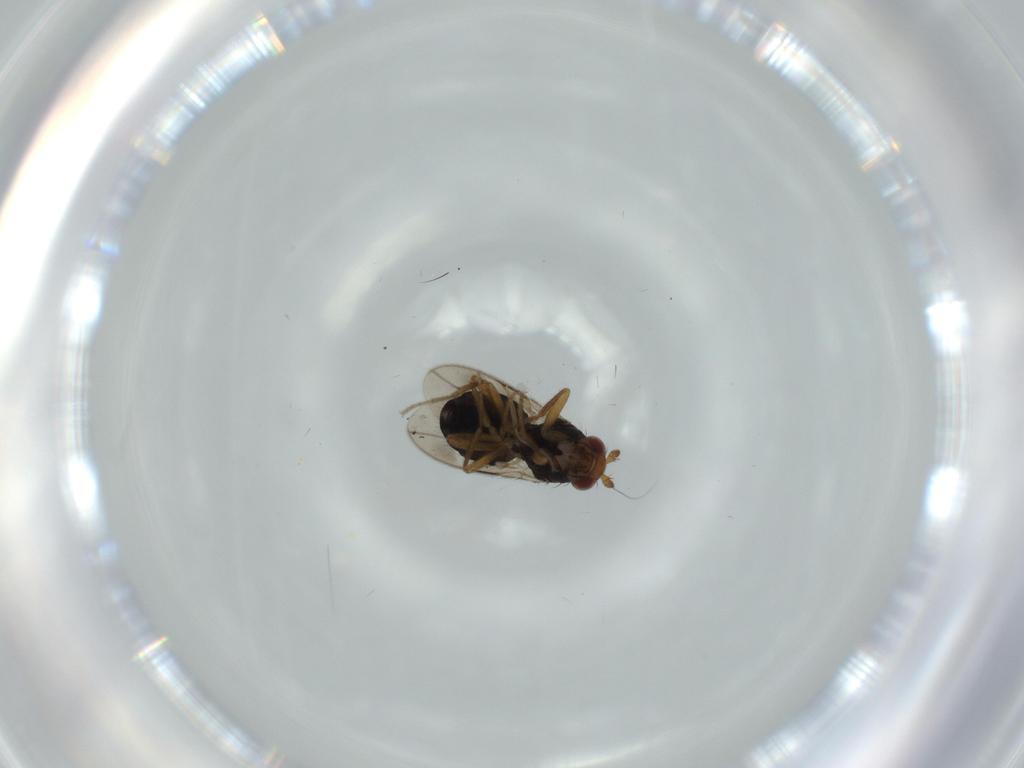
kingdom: Animalia
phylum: Arthropoda
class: Insecta
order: Diptera
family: Sphaeroceridae
